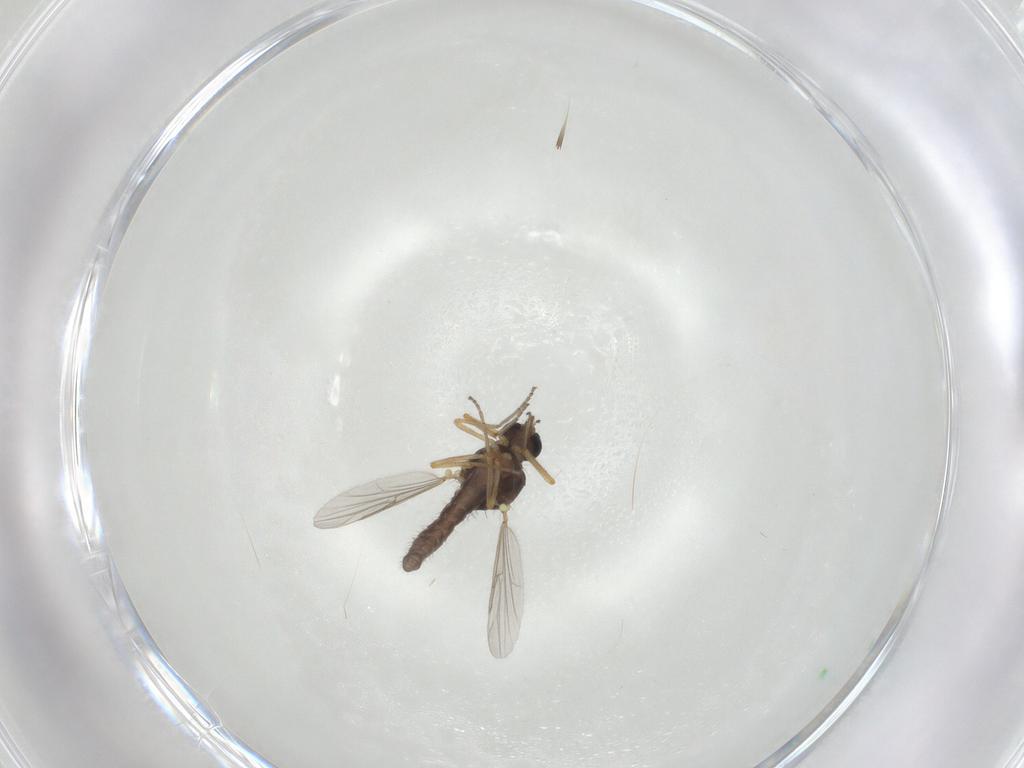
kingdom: Animalia
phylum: Arthropoda
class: Insecta
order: Diptera
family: Ceratopogonidae
